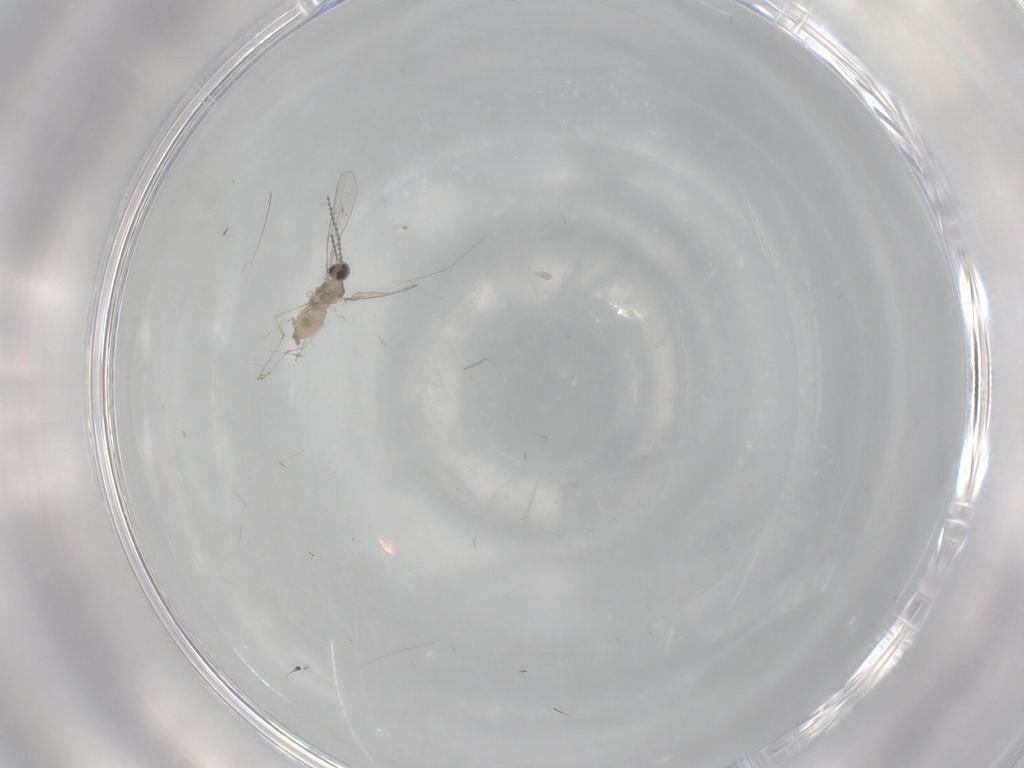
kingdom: Animalia
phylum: Arthropoda
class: Insecta
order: Diptera
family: Cecidomyiidae
